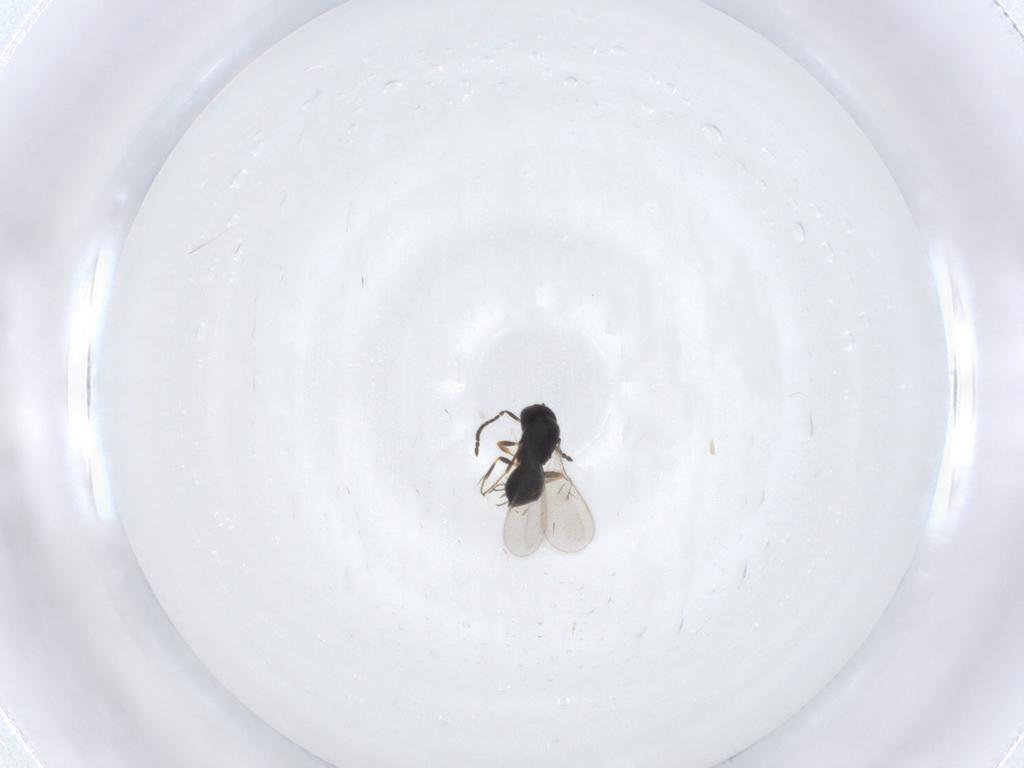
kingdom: Animalia
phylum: Arthropoda
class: Insecta
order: Hymenoptera
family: Scelionidae
